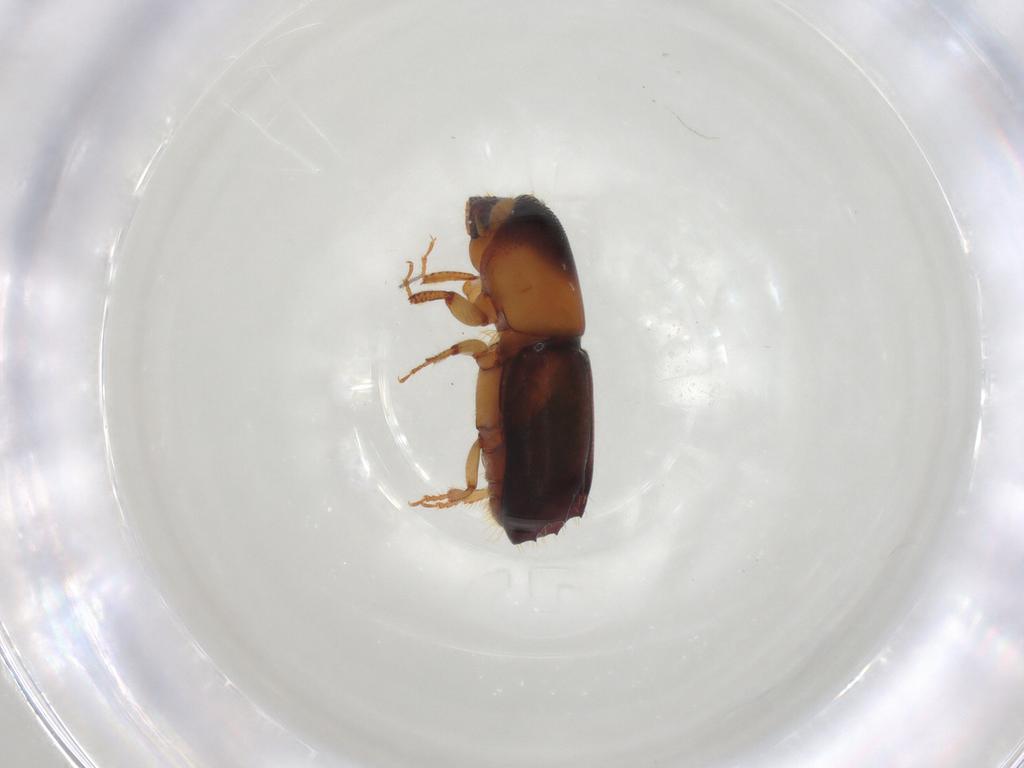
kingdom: Animalia
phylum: Arthropoda
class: Insecta
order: Coleoptera
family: Curculionidae
